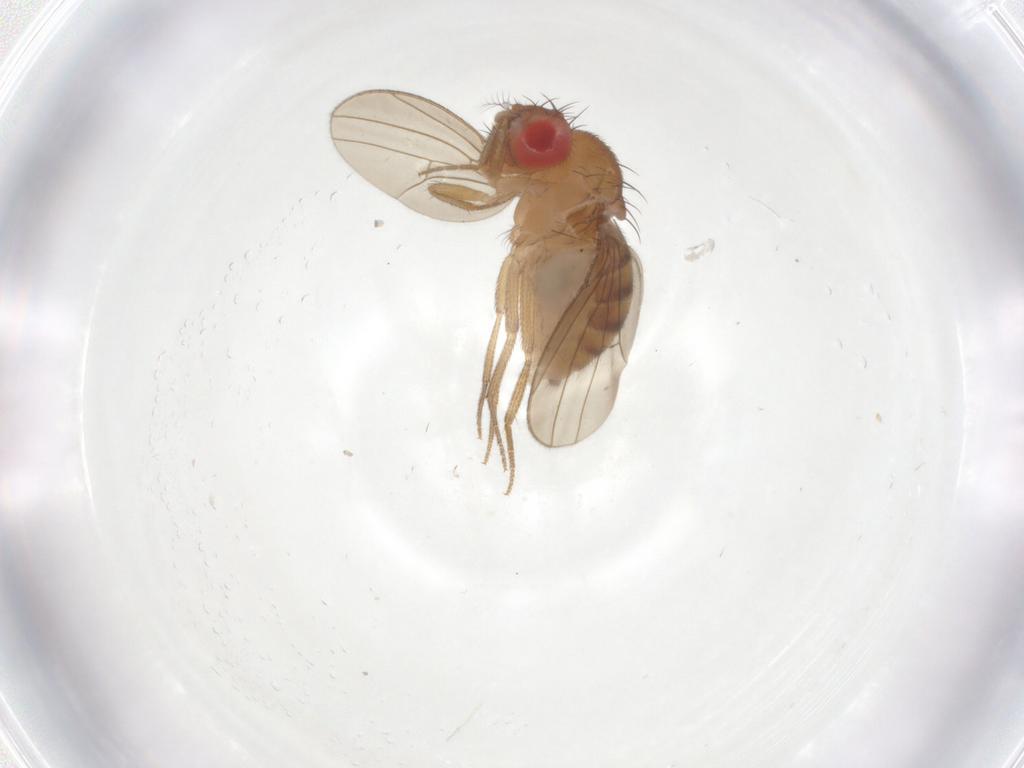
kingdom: Animalia
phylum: Arthropoda
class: Insecta
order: Diptera
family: Drosophilidae
